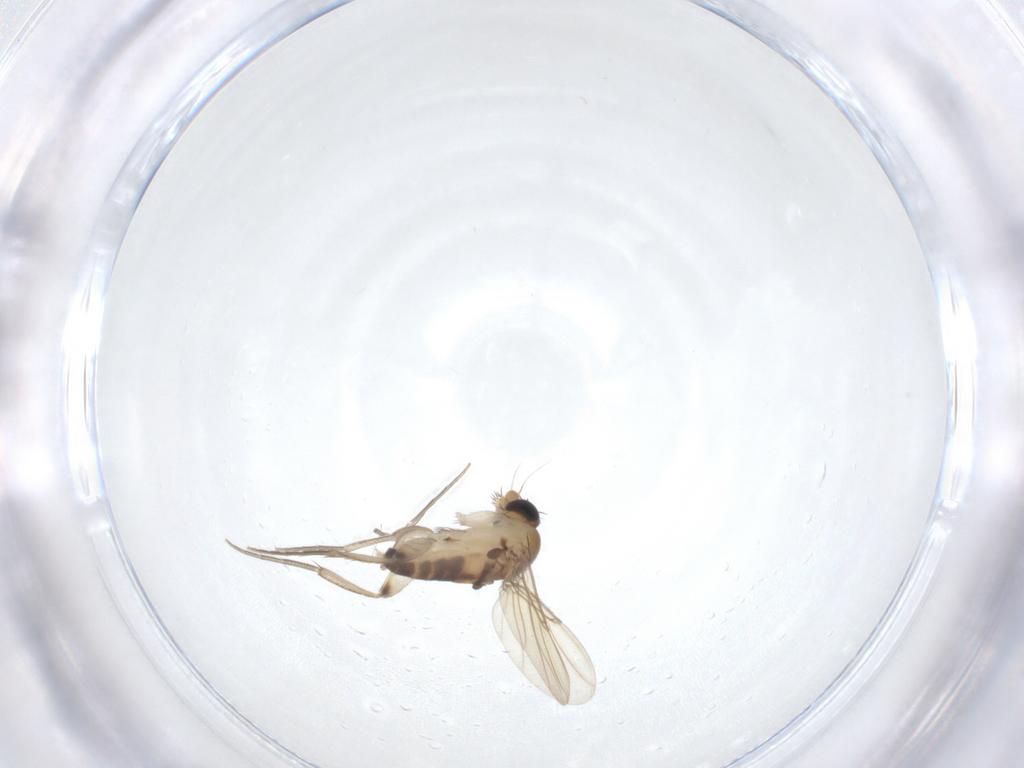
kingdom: Animalia
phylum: Arthropoda
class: Insecta
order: Diptera
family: Drosophilidae
